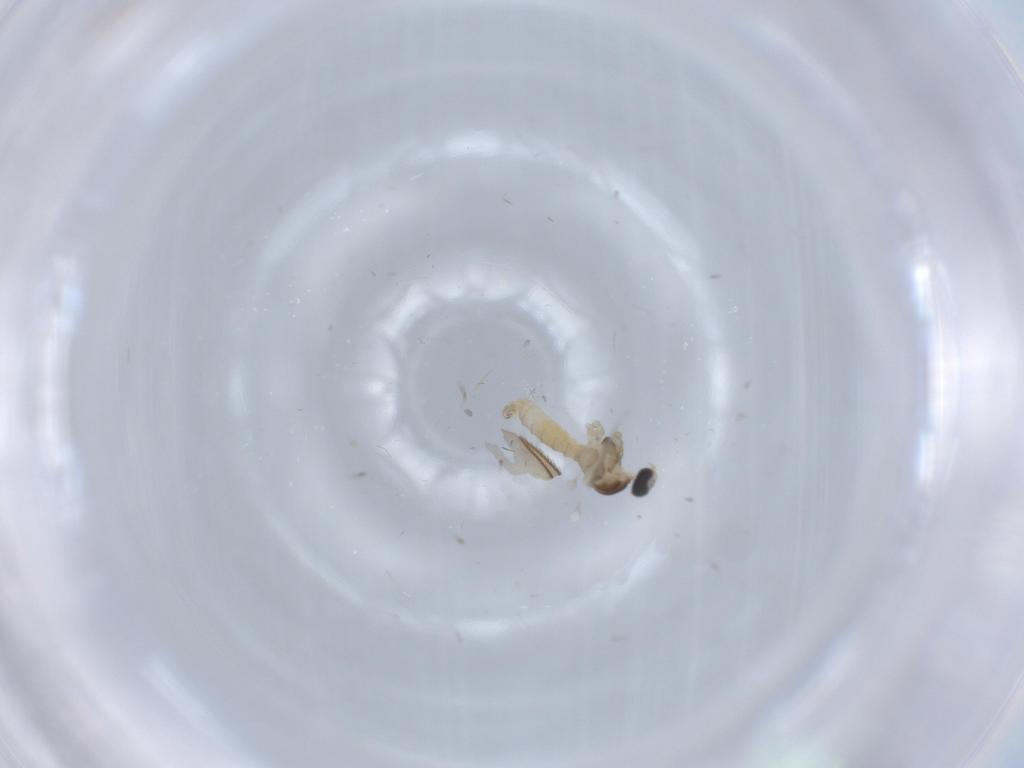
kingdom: Animalia
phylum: Arthropoda
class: Insecta
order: Diptera
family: Cecidomyiidae
